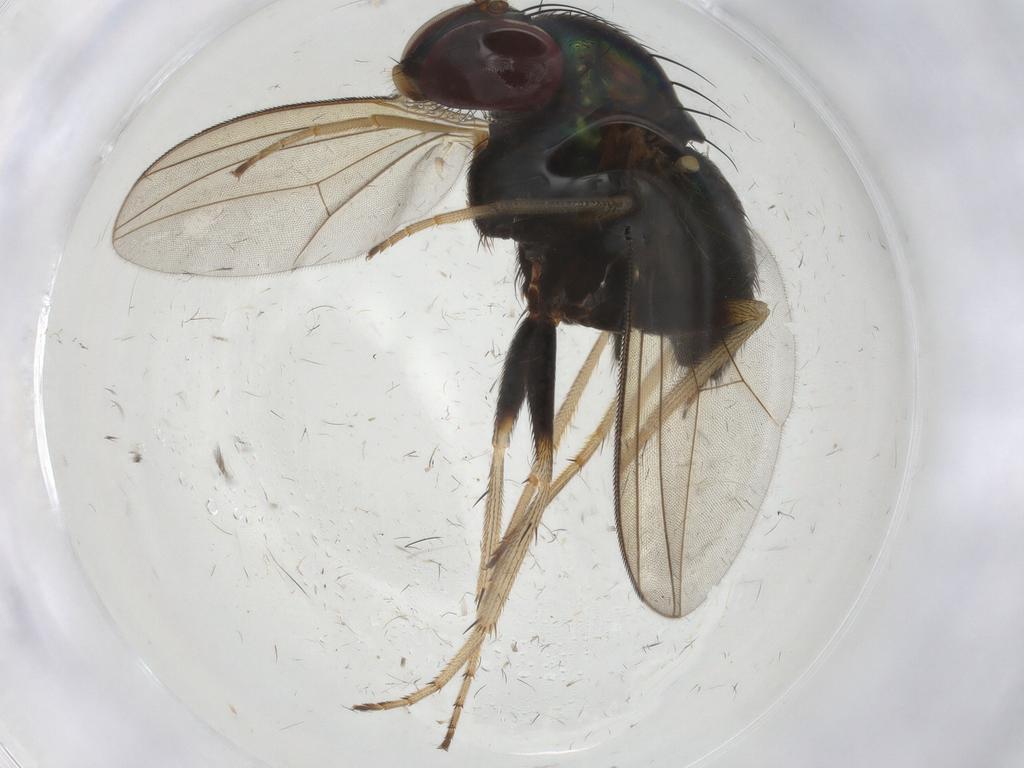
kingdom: Animalia
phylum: Arthropoda
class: Insecta
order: Diptera
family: Dolichopodidae
